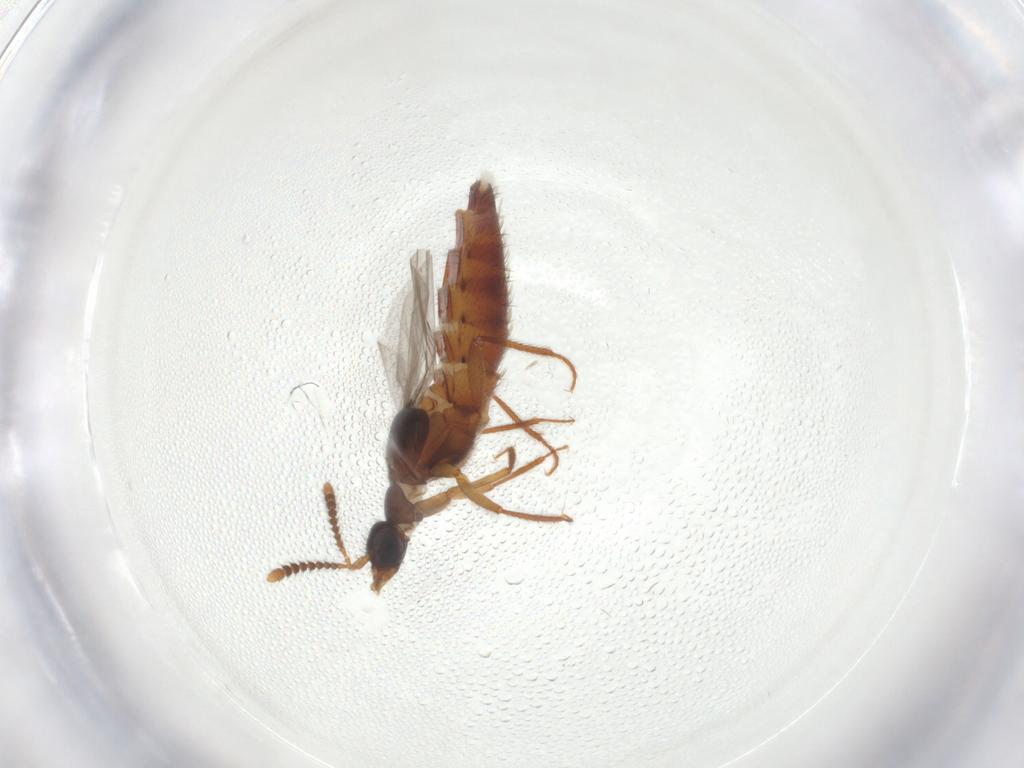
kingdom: Animalia
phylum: Arthropoda
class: Insecta
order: Coleoptera
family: Staphylinidae
